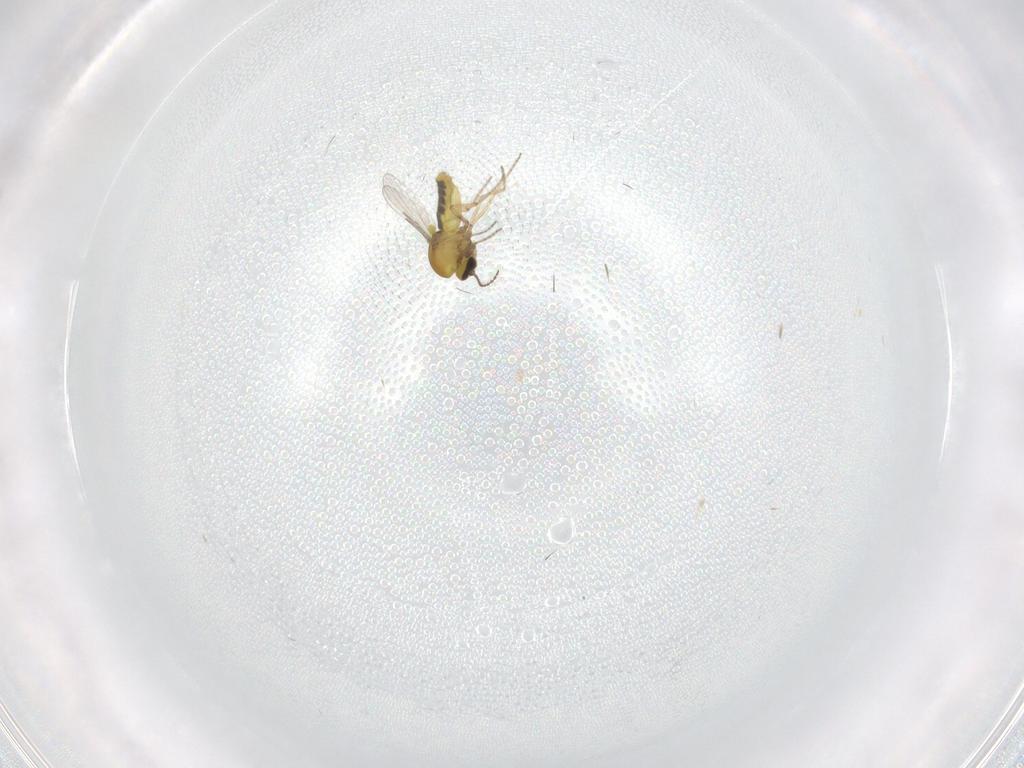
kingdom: Animalia
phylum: Arthropoda
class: Insecta
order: Diptera
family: Ceratopogonidae
